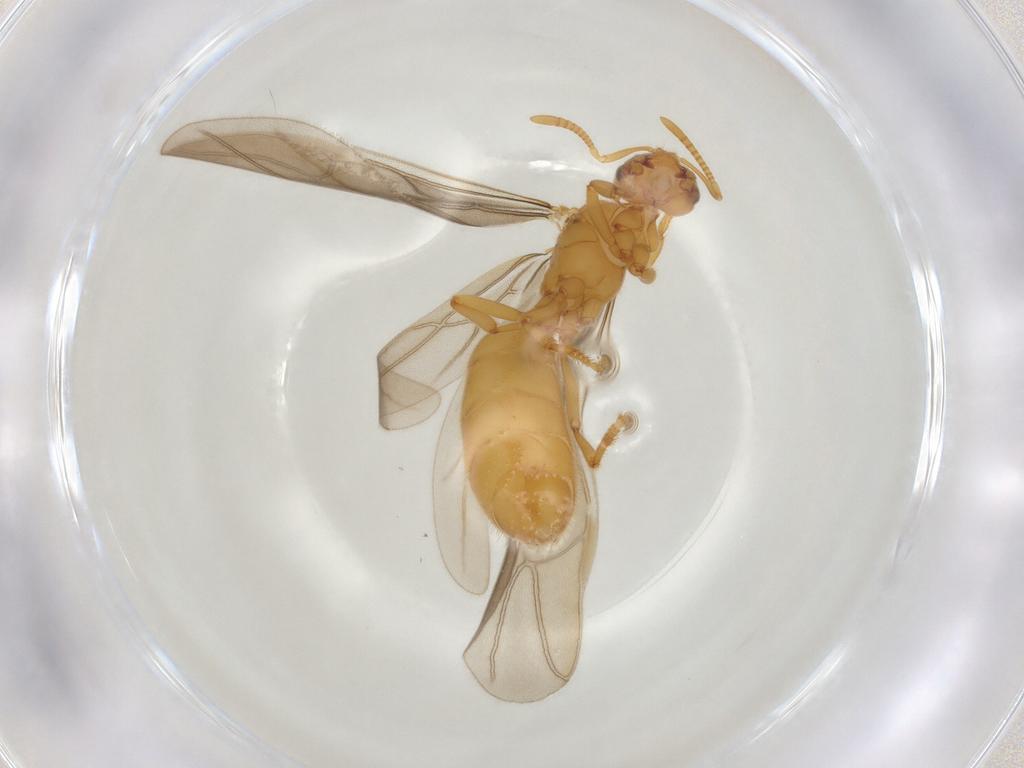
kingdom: Animalia
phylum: Arthropoda
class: Insecta
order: Hymenoptera
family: Formicidae
